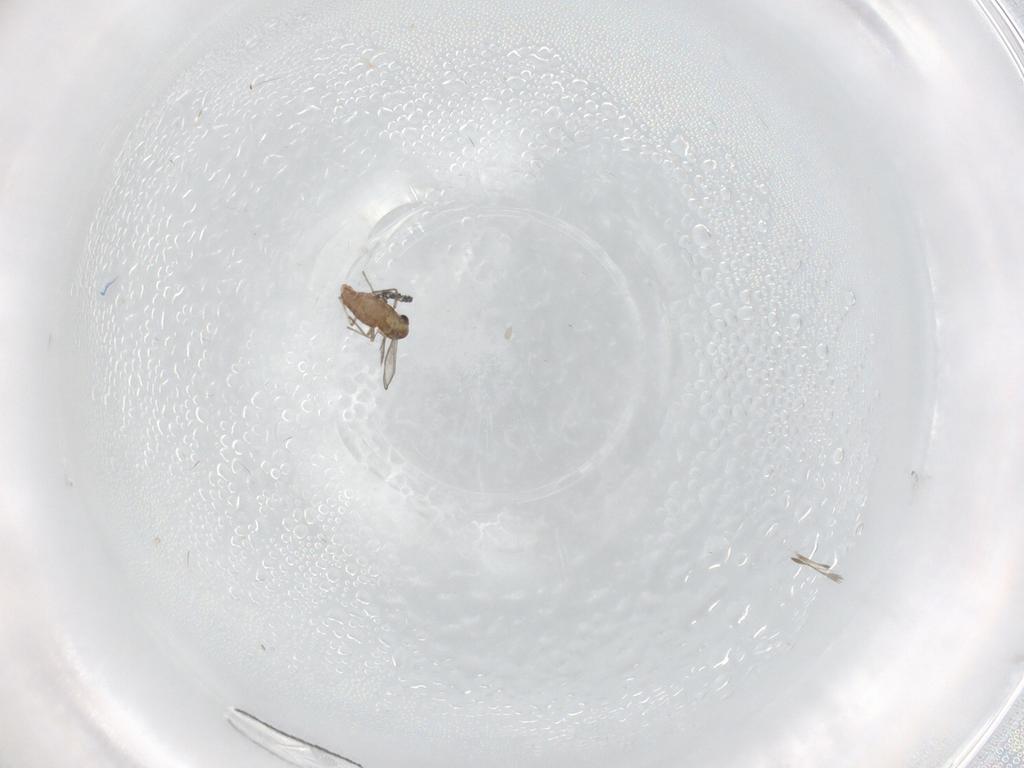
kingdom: Animalia
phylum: Arthropoda
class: Insecta
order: Diptera
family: Chironomidae
